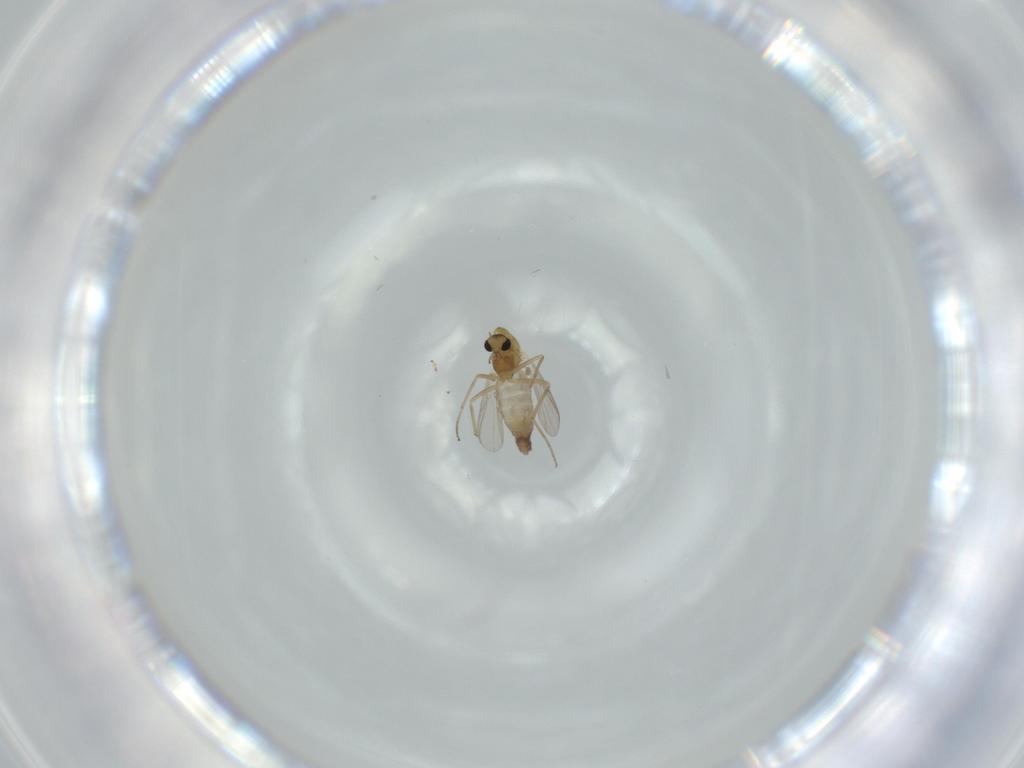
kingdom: Animalia
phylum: Arthropoda
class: Insecta
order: Diptera
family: Chironomidae
